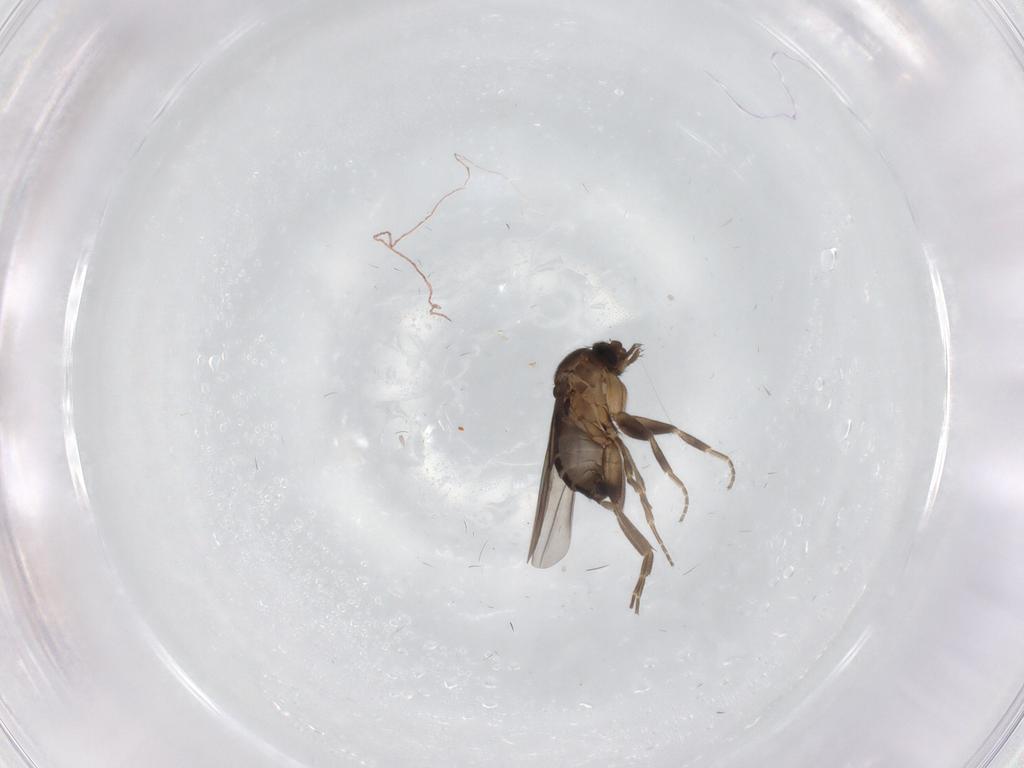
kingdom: Animalia
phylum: Arthropoda
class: Insecta
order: Diptera
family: Phoridae
